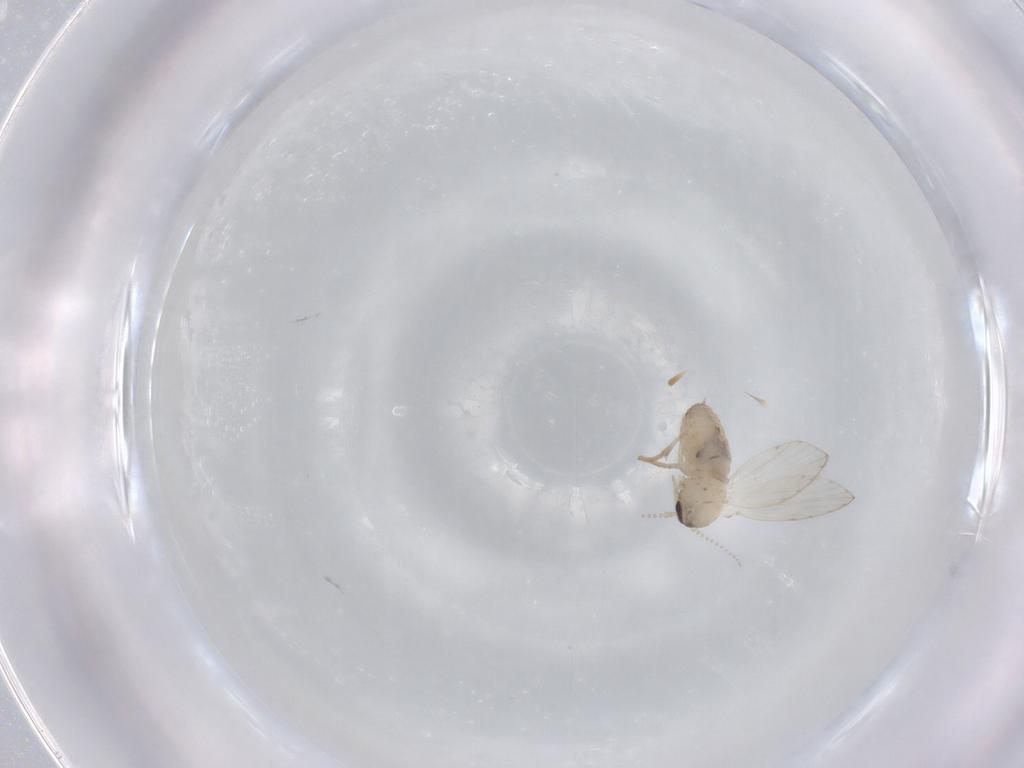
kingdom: Animalia
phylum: Arthropoda
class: Insecta
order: Diptera
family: Psychodidae
